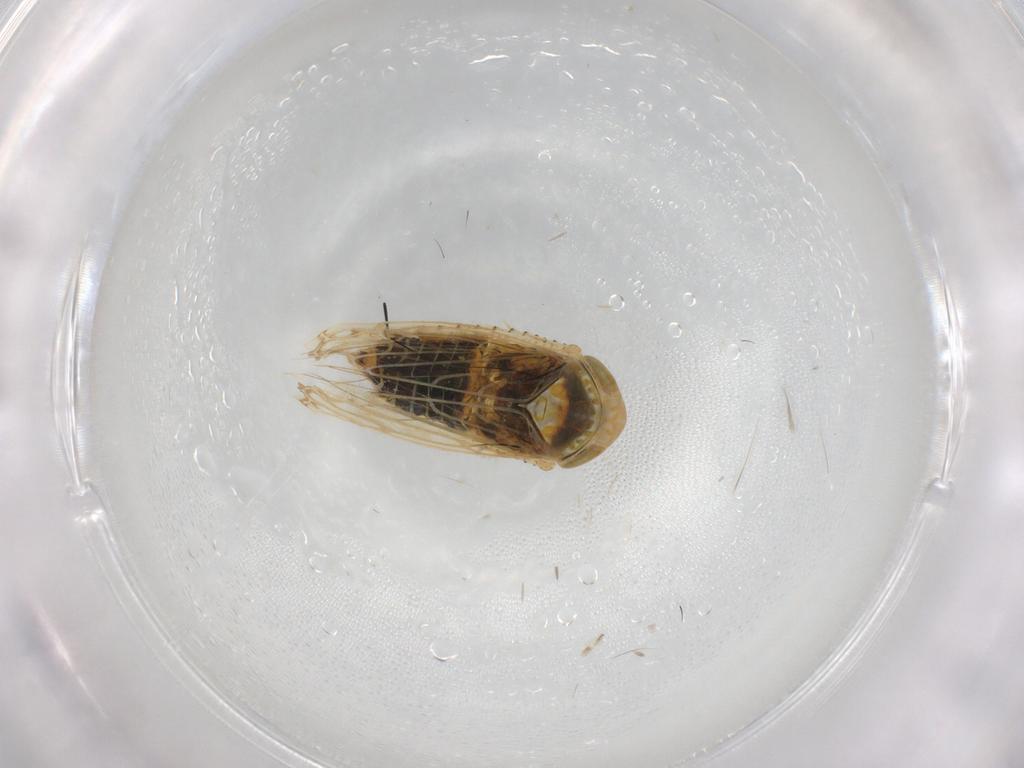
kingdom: Animalia
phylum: Arthropoda
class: Insecta
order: Hemiptera
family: Cicadellidae
